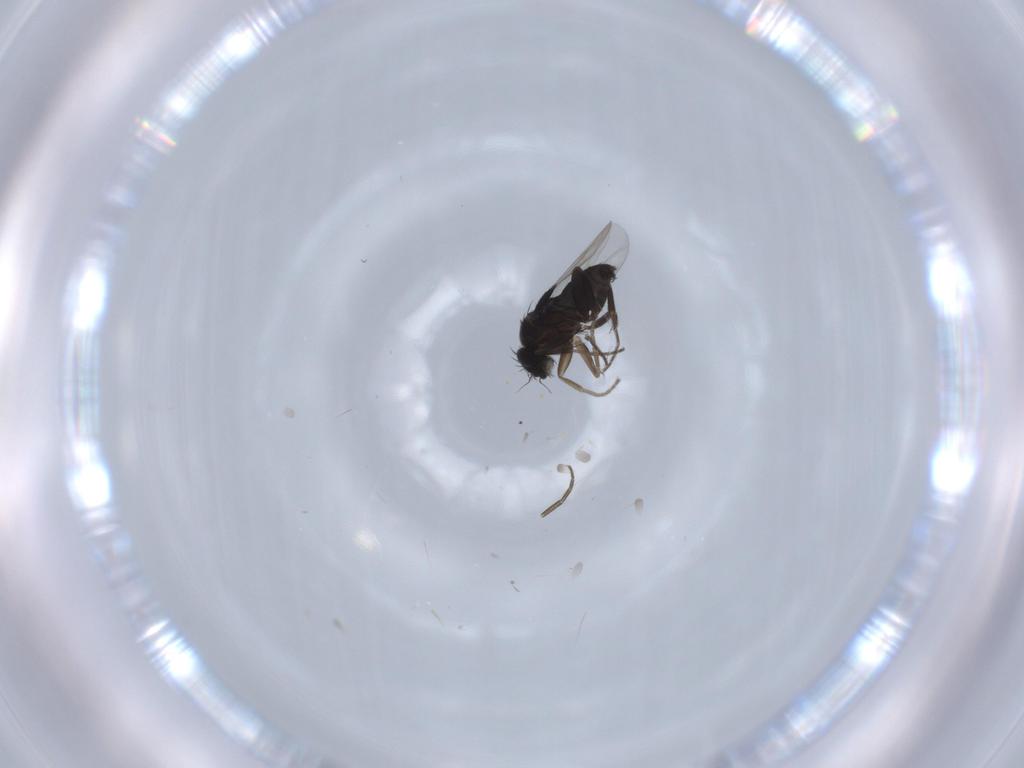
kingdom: Animalia
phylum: Arthropoda
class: Insecta
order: Diptera
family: Phoridae
